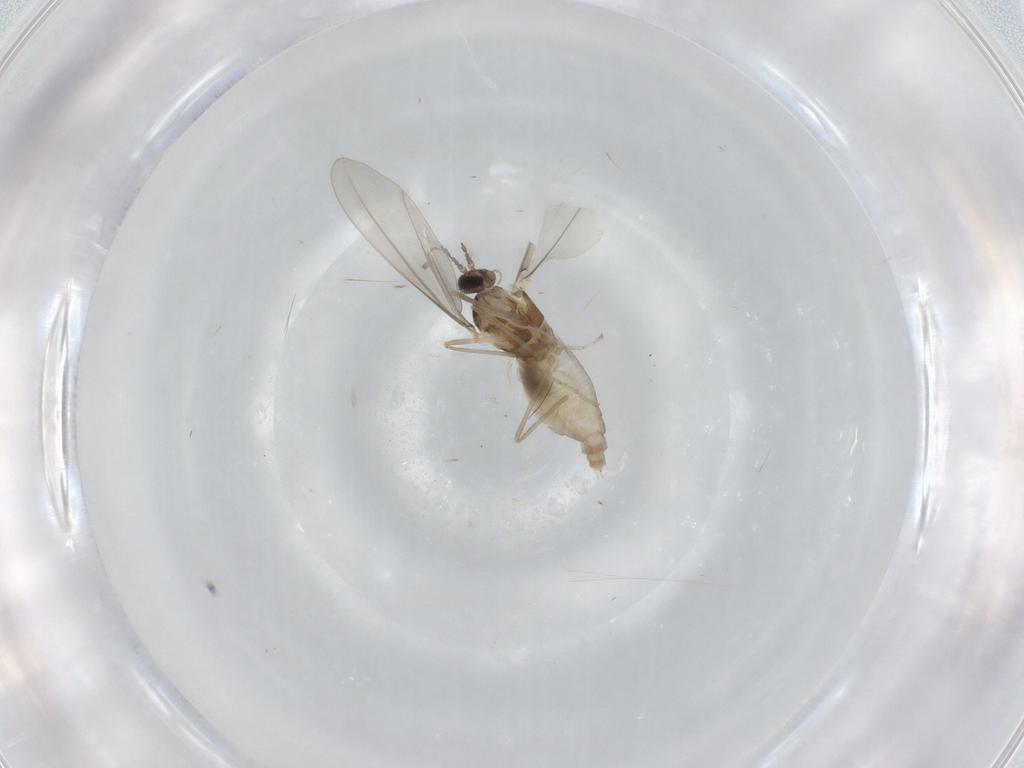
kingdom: Animalia
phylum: Arthropoda
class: Insecta
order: Diptera
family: Cecidomyiidae
